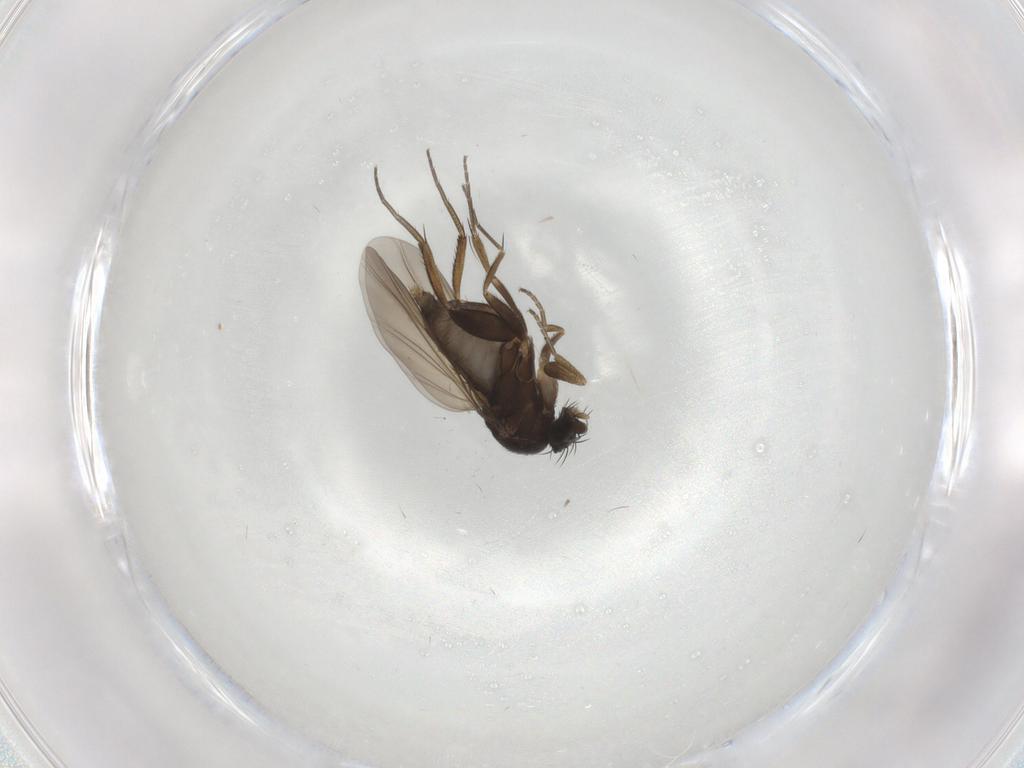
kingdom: Animalia
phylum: Arthropoda
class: Insecta
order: Diptera
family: Phoridae
